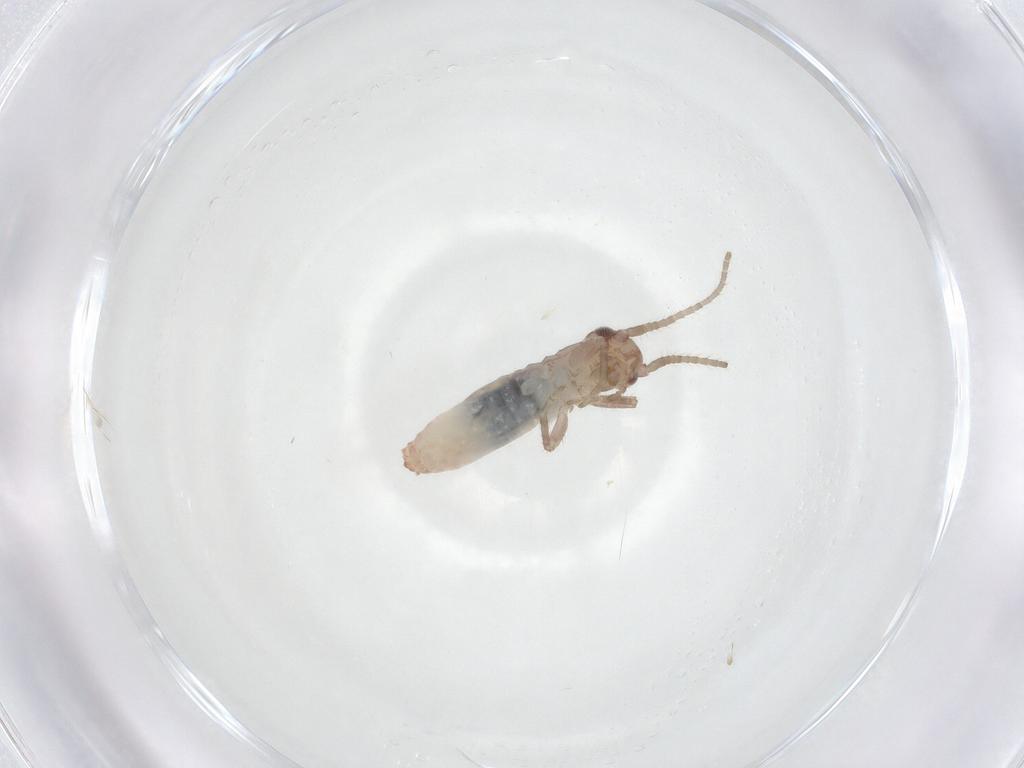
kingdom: Animalia
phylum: Arthropoda
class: Insecta
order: Orthoptera
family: Mogoplistidae
